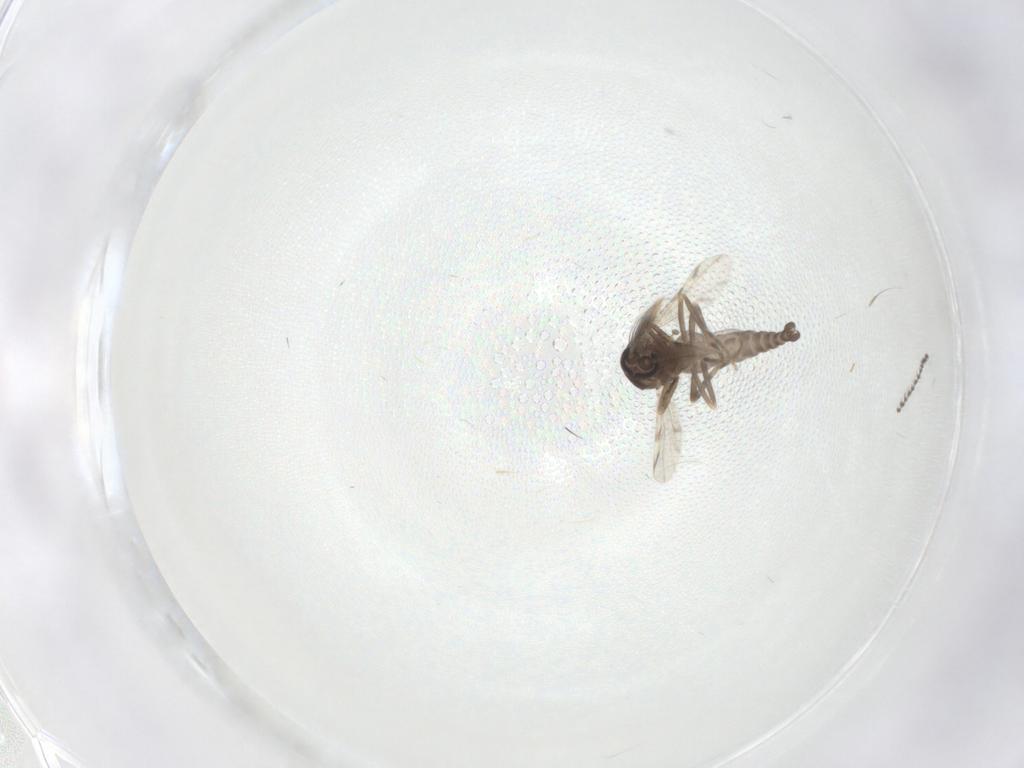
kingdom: Animalia
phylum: Arthropoda
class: Insecta
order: Diptera
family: Ceratopogonidae
